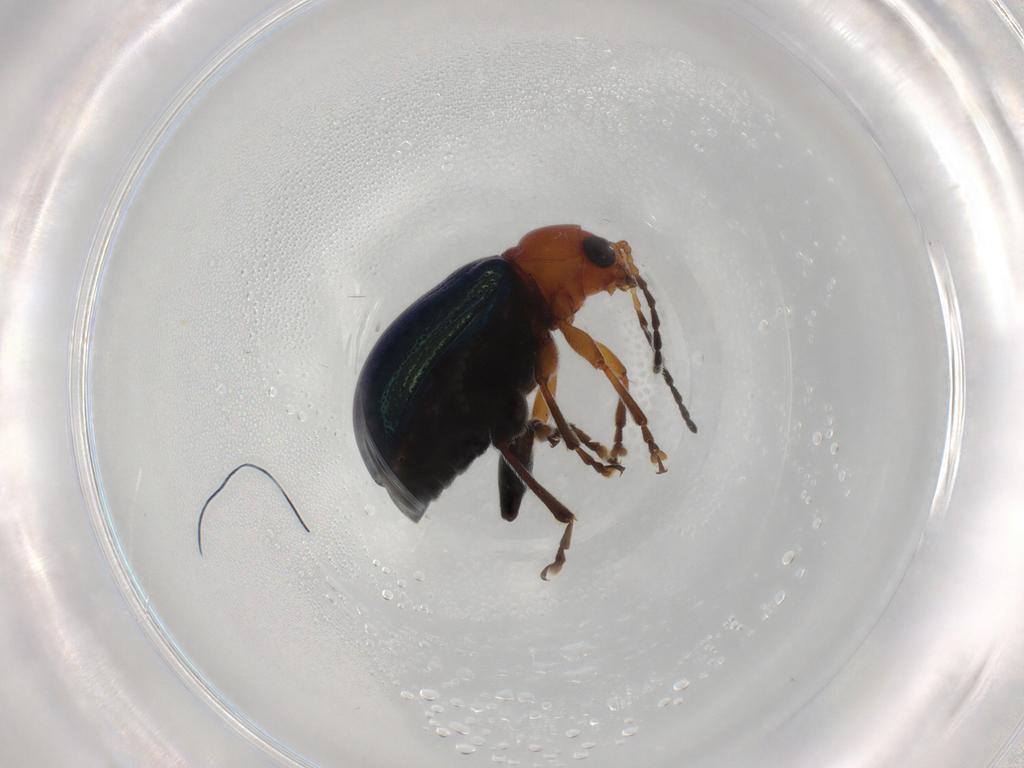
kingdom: Animalia
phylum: Arthropoda
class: Insecta
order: Coleoptera
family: Chrysomelidae
